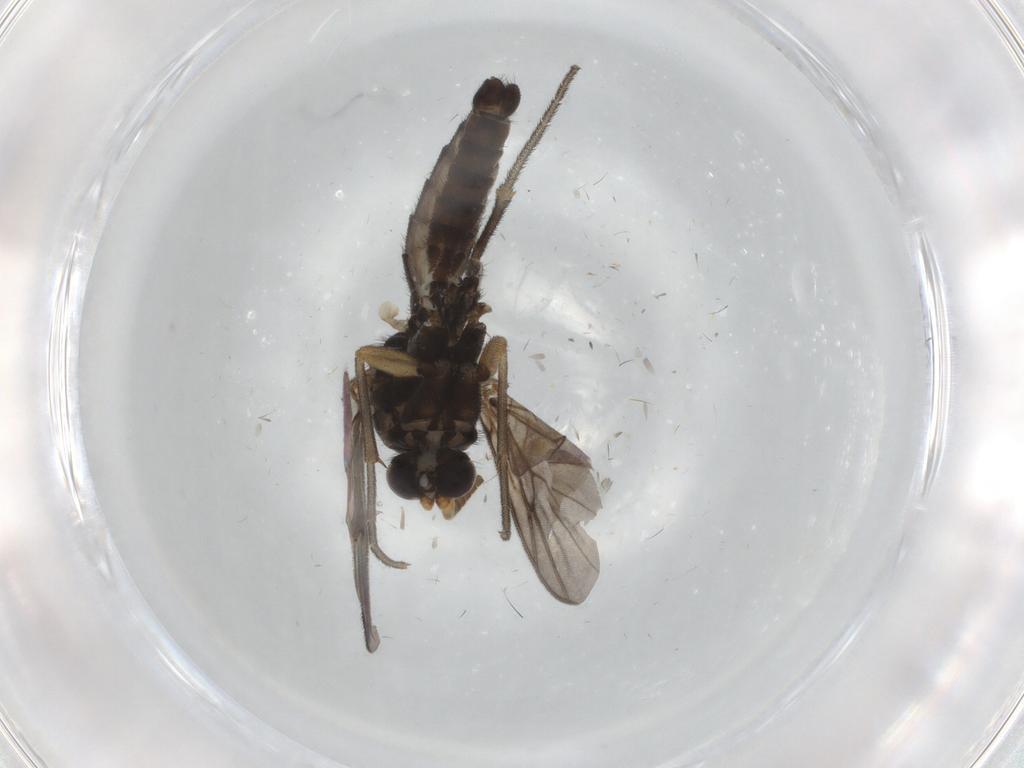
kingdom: Animalia
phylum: Arthropoda
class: Insecta
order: Diptera
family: Mycetophilidae
